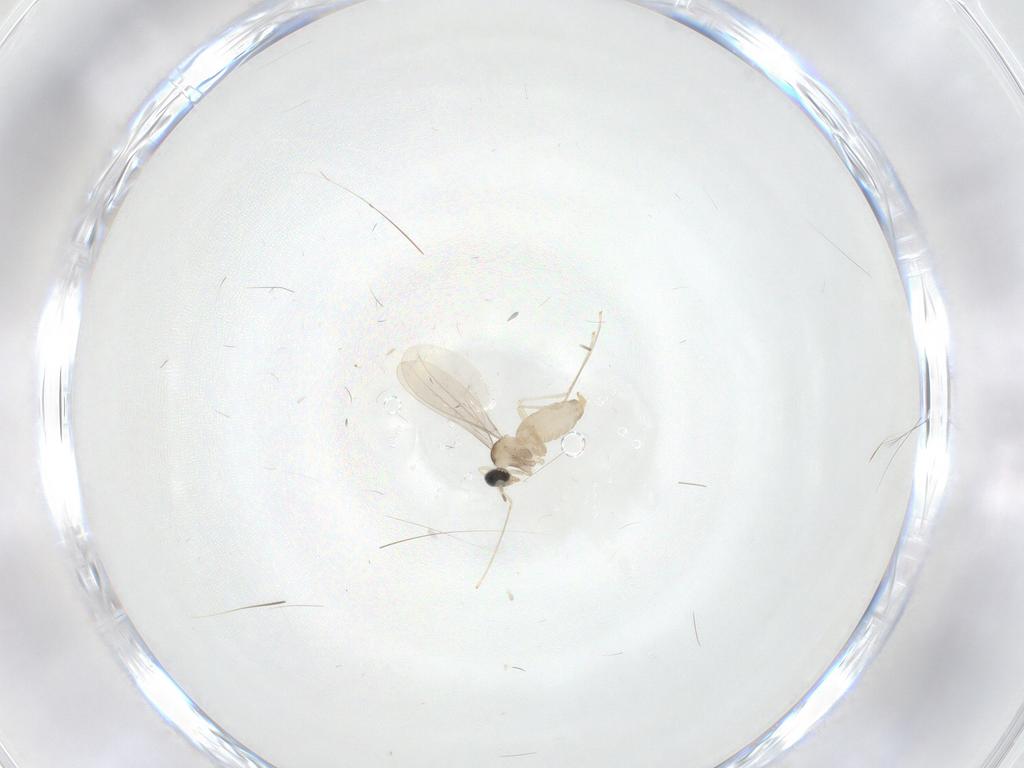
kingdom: Animalia
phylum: Arthropoda
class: Insecta
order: Diptera
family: Cecidomyiidae
